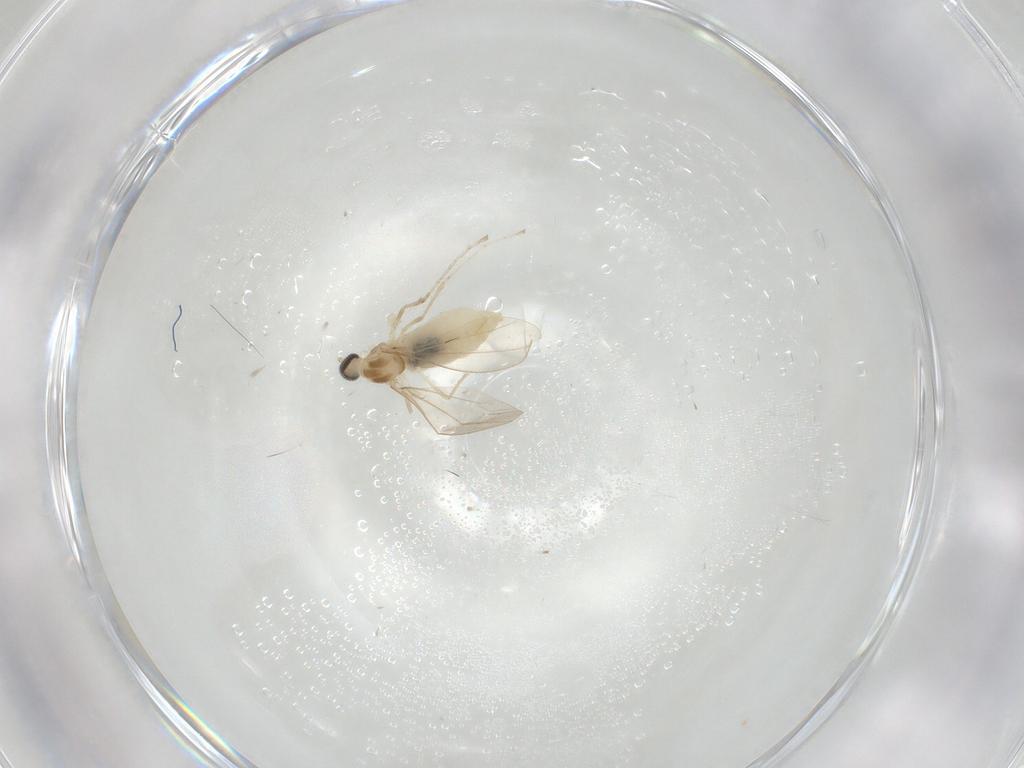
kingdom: Animalia
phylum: Arthropoda
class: Insecta
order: Diptera
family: Cecidomyiidae
